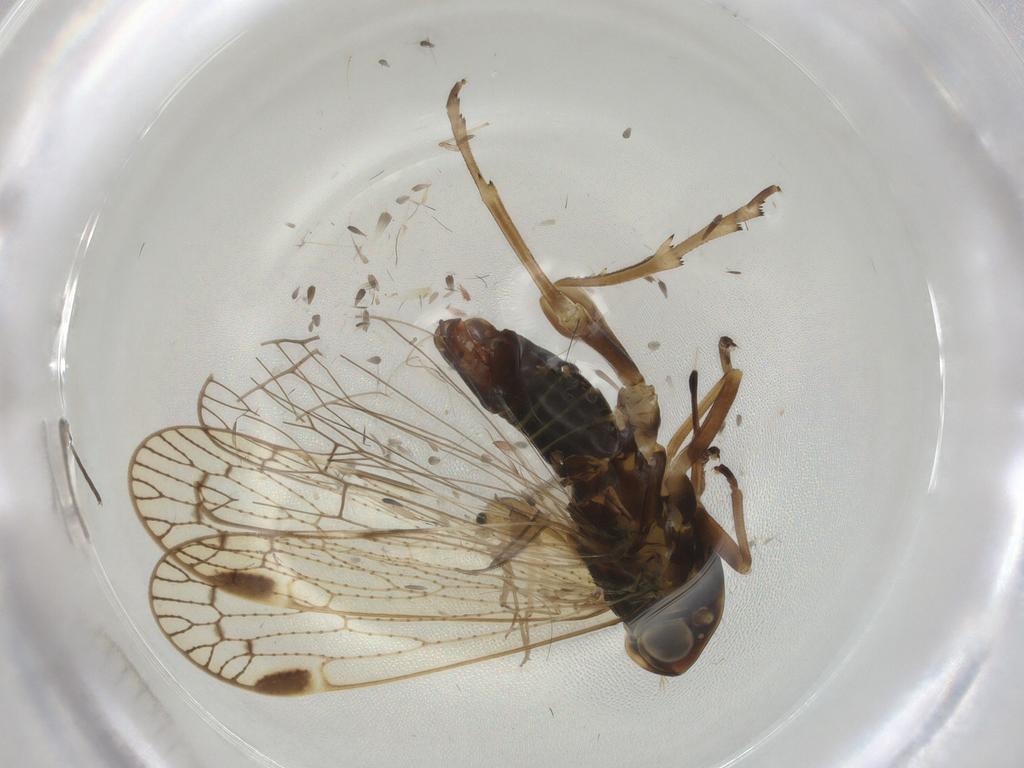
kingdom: Animalia
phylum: Arthropoda
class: Insecta
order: Hemiptera
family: Cixiidae
